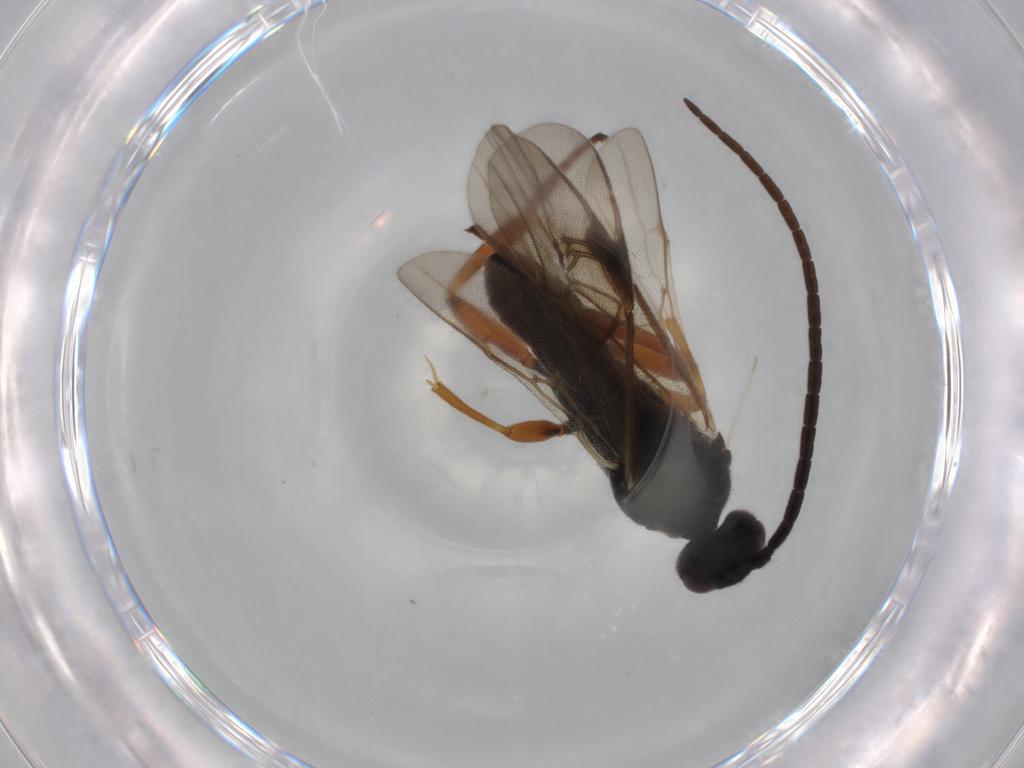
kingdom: Animalia
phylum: Arthropoda
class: Insecta
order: Hymenoptera
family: Braconidae
